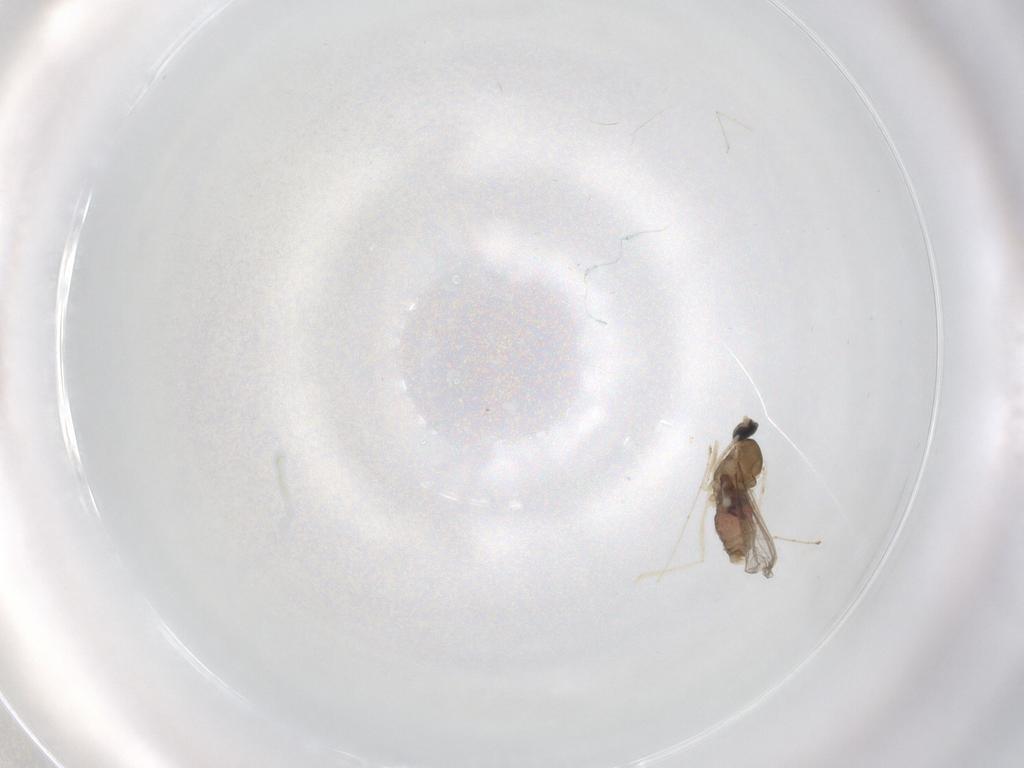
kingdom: Animalia
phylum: Arthropoda
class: Insecta
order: Diptera
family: Cecidomyiidae
